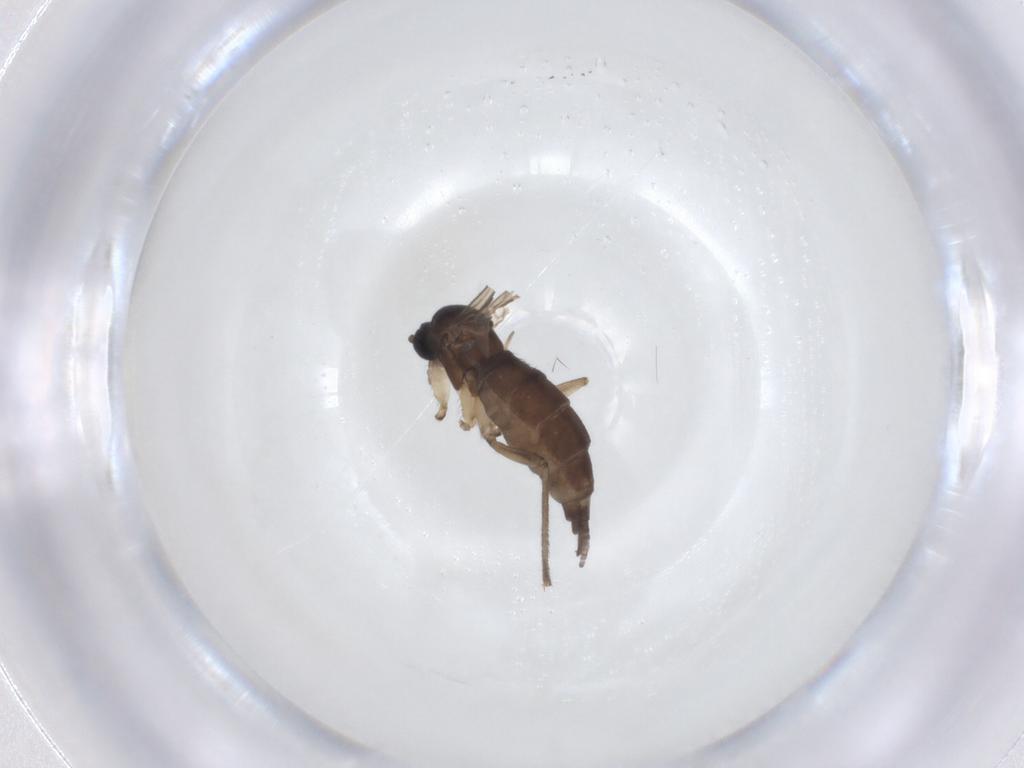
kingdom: Animalia
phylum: Arthropoda
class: Insecta
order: Diptera
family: Sciaridae
